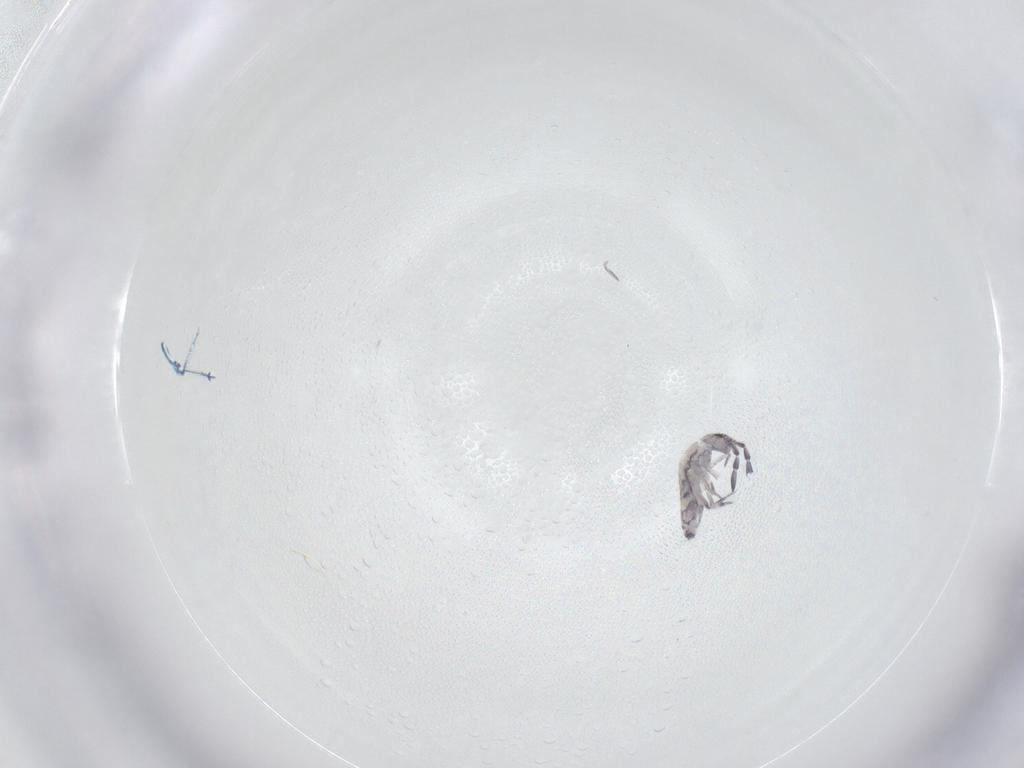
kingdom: Animalia
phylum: Arthropoda
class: Collembola
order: Entomobryomorpha
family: Entomobryidae
